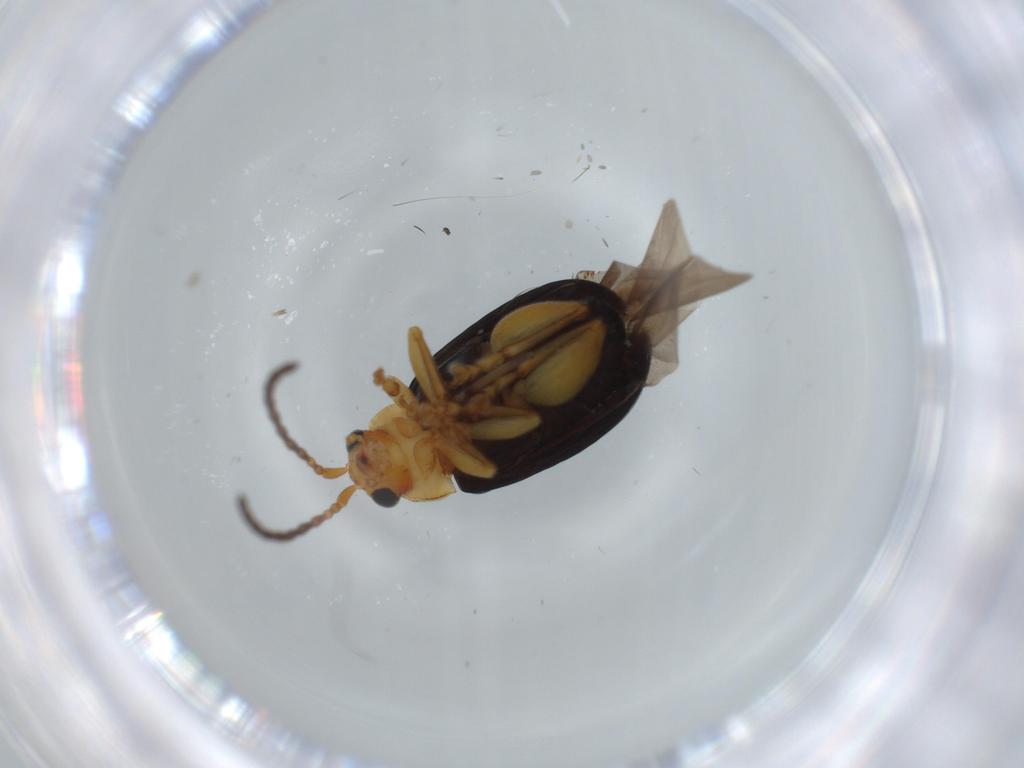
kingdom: Animalia
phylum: Arthropoda
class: Insecta
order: Coleoptera
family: Chrysomelidae
